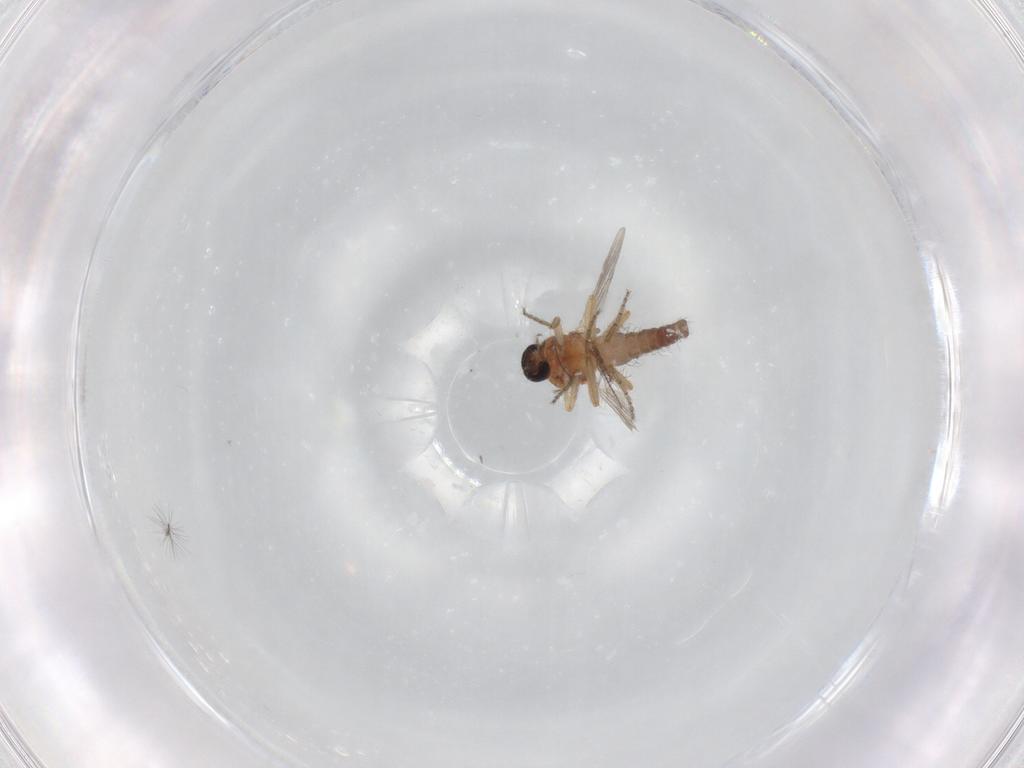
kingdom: Animalia
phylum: Arthropoda
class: Insecta
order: Diptera
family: Ceratopogonidae
